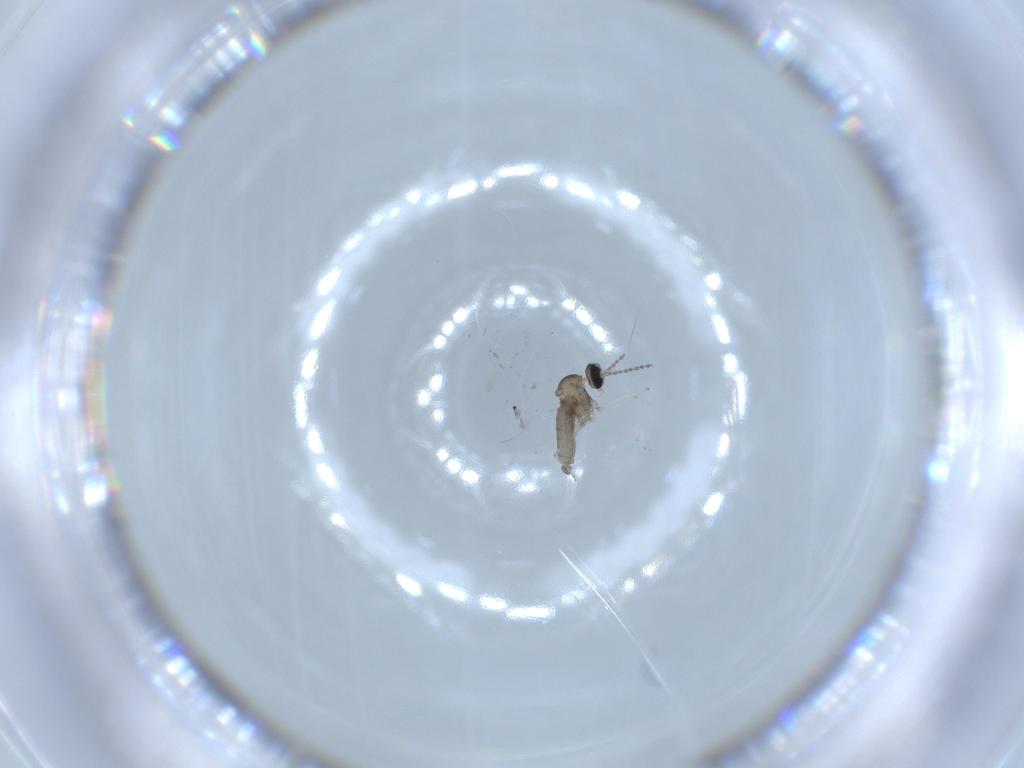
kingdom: Animalia
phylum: Arthropoda
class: Insecta
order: Diptera
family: Cecidomyiidae
